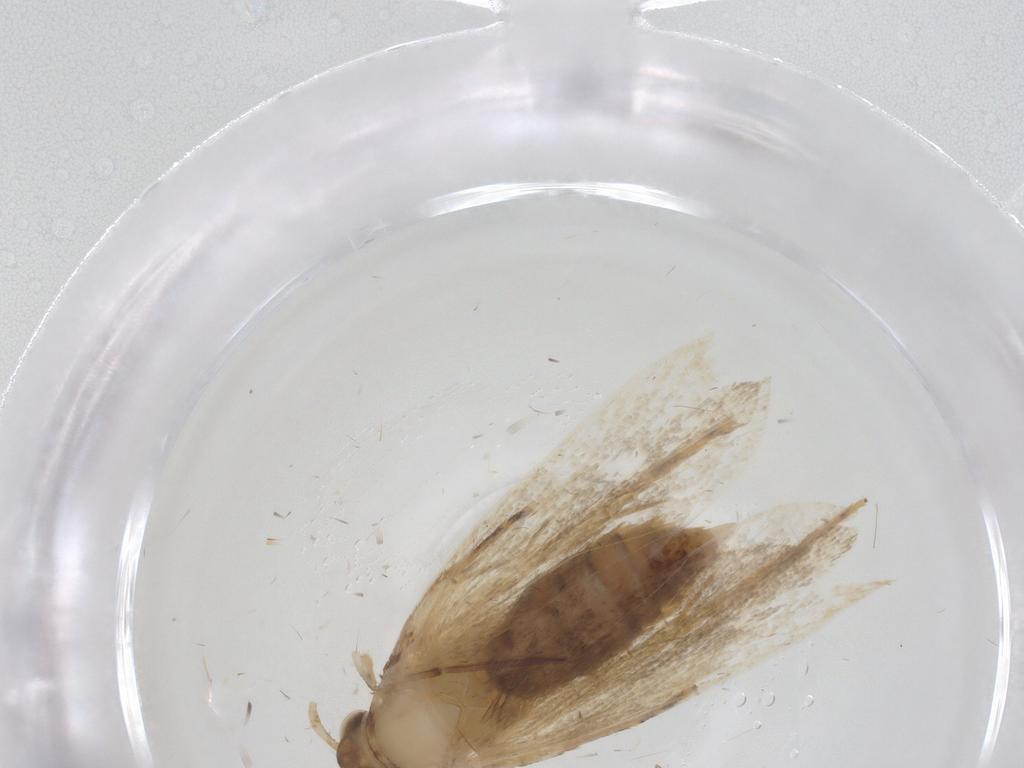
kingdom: Animalia
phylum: Arthropoda
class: Insecta
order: Lepidoptera
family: Lecithoceridae
